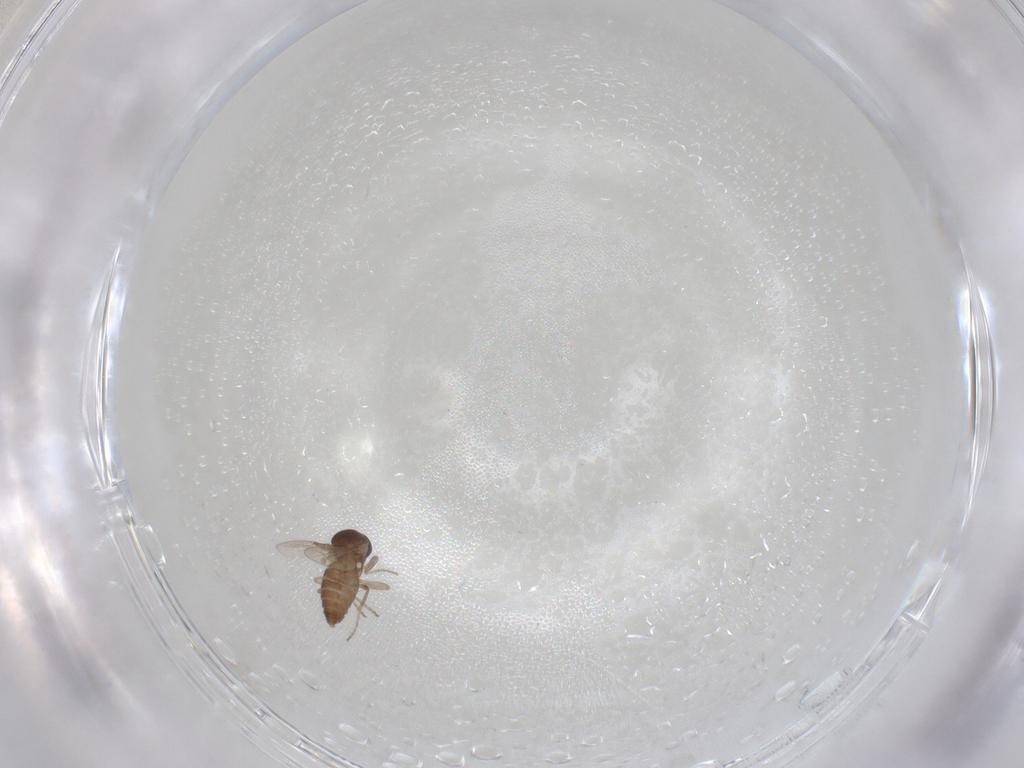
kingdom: Animalia
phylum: Arthropoda
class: Insecta
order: Diptera
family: Ceratopogonidae
